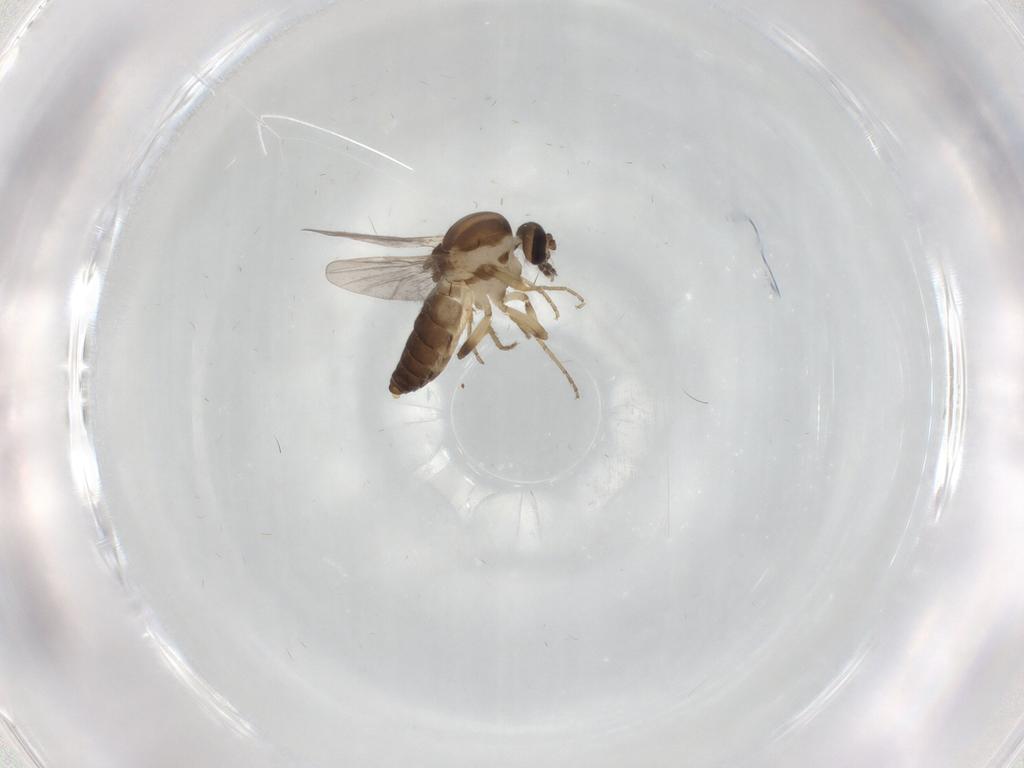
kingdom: Animalia
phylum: Arthropoda
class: Insecta
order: Diptera
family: Ceratopogonidae
